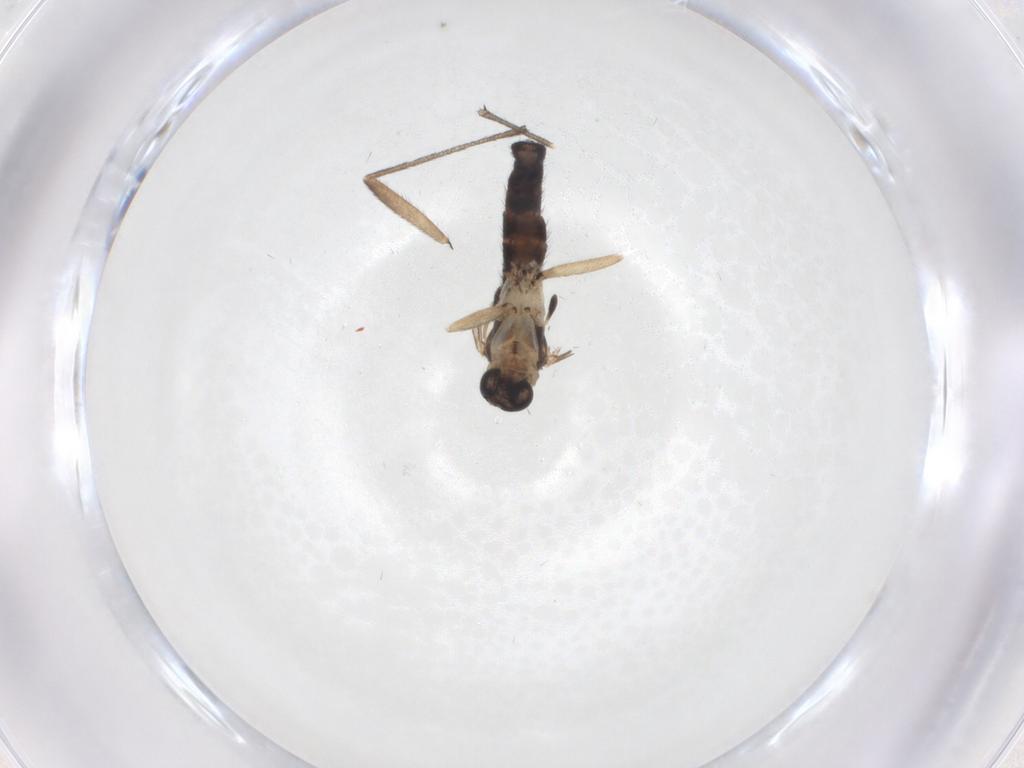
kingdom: Animalia
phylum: Arthropoda
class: Insecta
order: Diptera
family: Sciaridae
